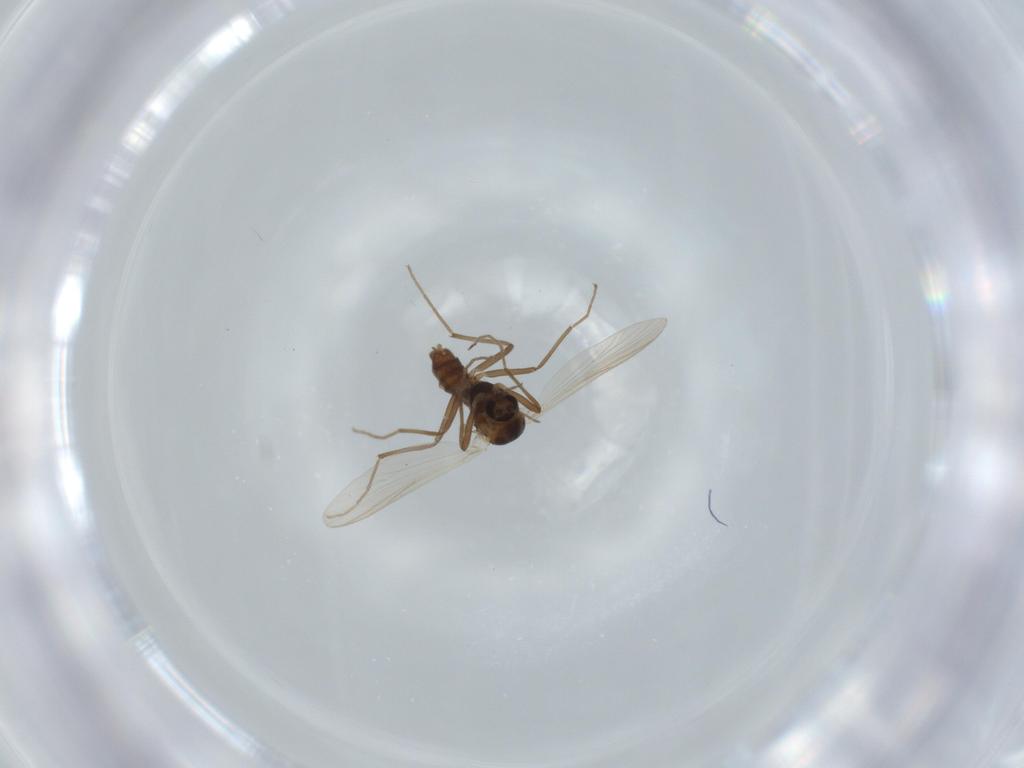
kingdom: Animalia
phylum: Arthropoda
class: Insecta
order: Diptera
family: Chironomidae
